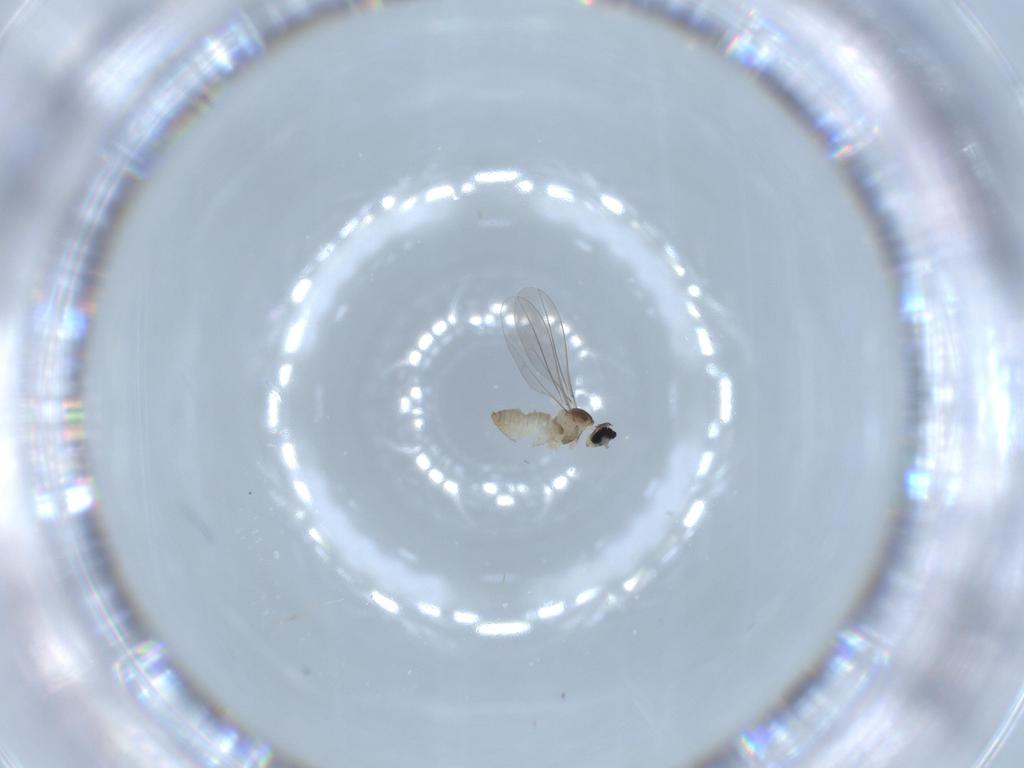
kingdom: Animalia
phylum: Arthropoda
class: Insecta
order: Diptera
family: Cecidomyiidae
